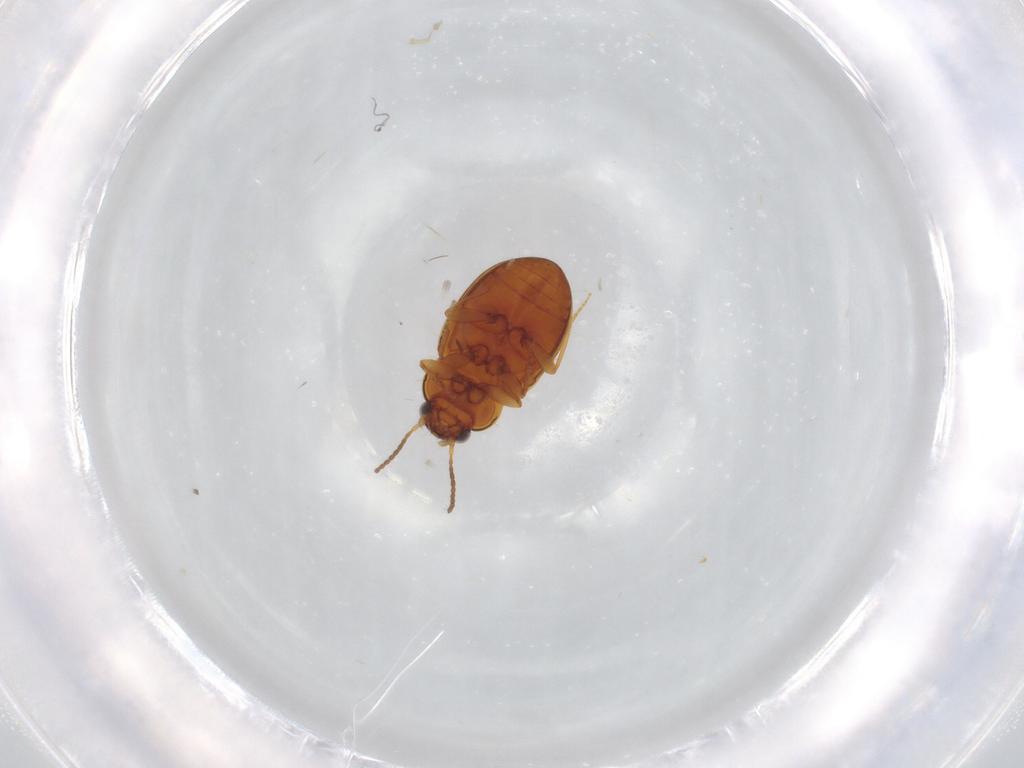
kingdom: Animalia
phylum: Arthropoda
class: Insecta
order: Coleoptera
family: Carabidae
